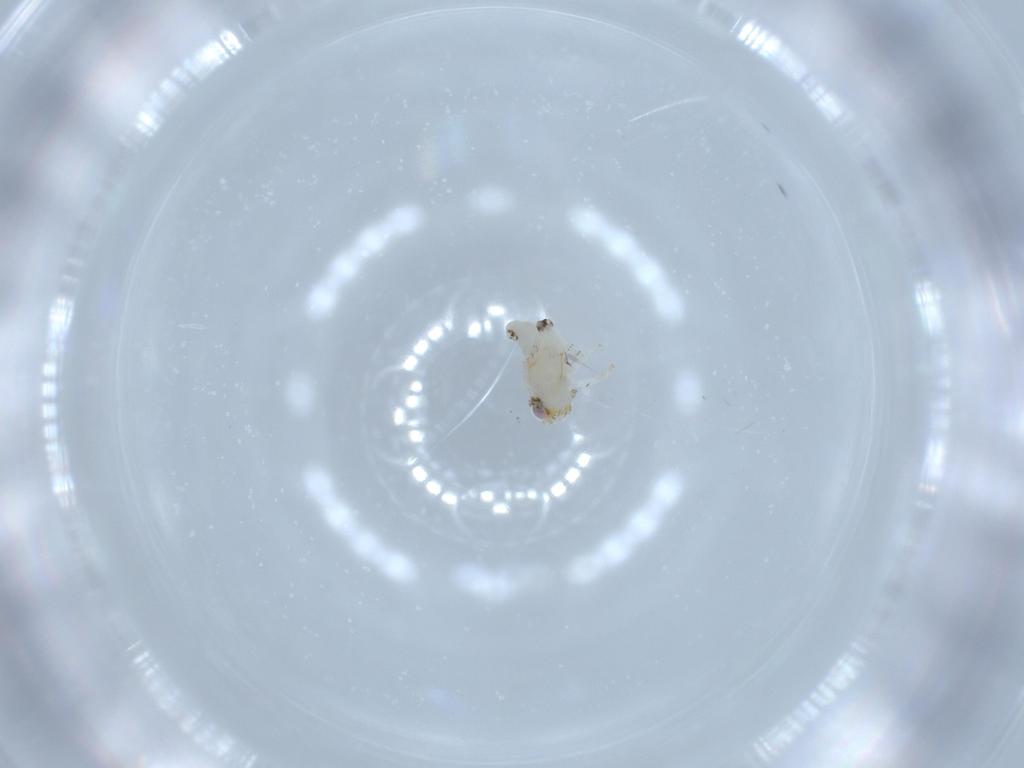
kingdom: Animalia
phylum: Arthropoda
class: Insecta
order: Hemiptera
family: Nogodinidae
